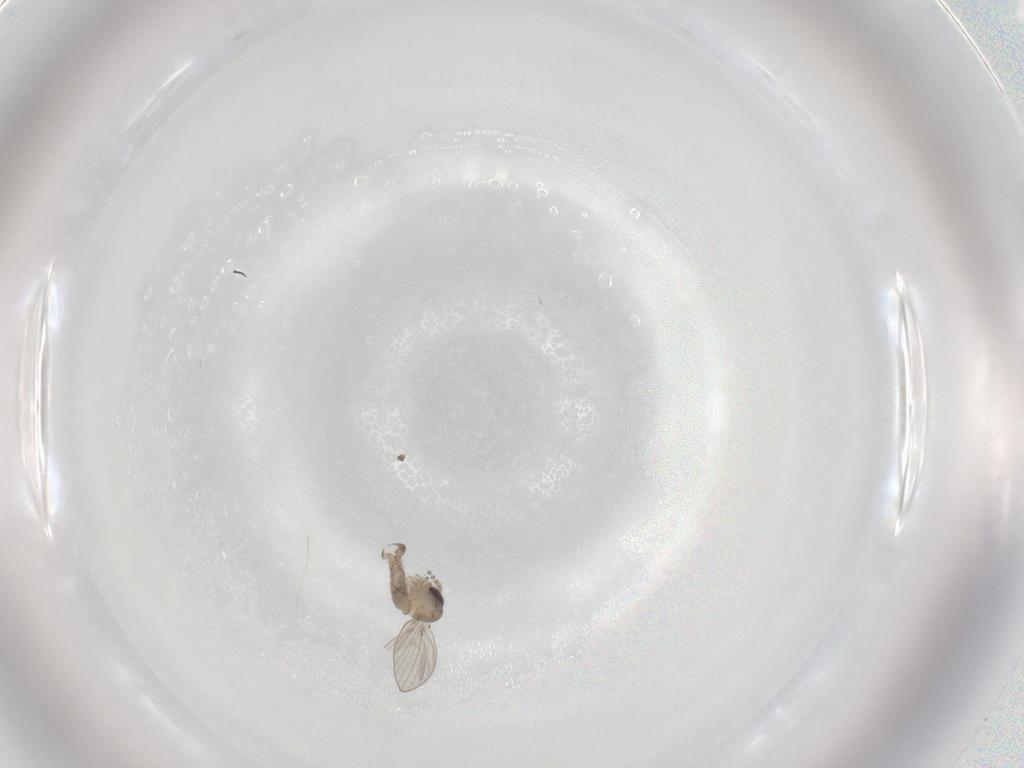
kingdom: Animalia
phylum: Arthropoda
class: Insecta
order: Diptera
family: Psychodidae
